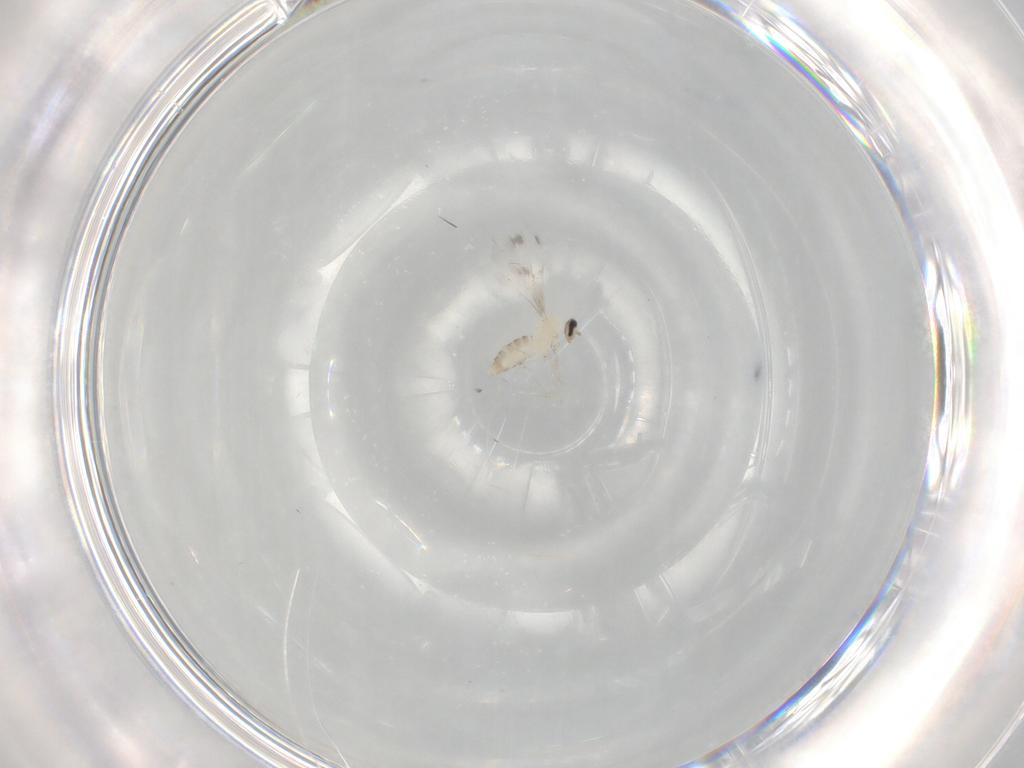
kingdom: Animalia
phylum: Arthropoda
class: Insecta
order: Diptera
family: Cecidomyiidae
